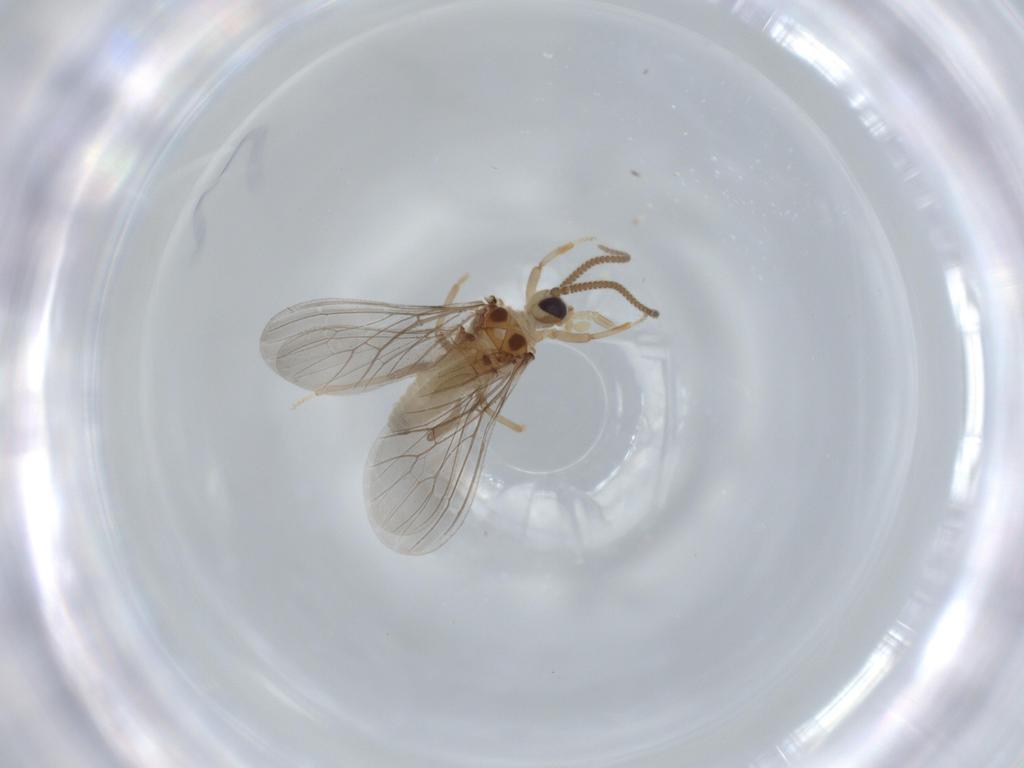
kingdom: Animalia
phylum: Arthropoda
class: Insecta
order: Neuroptera
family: Coniopterygidae
